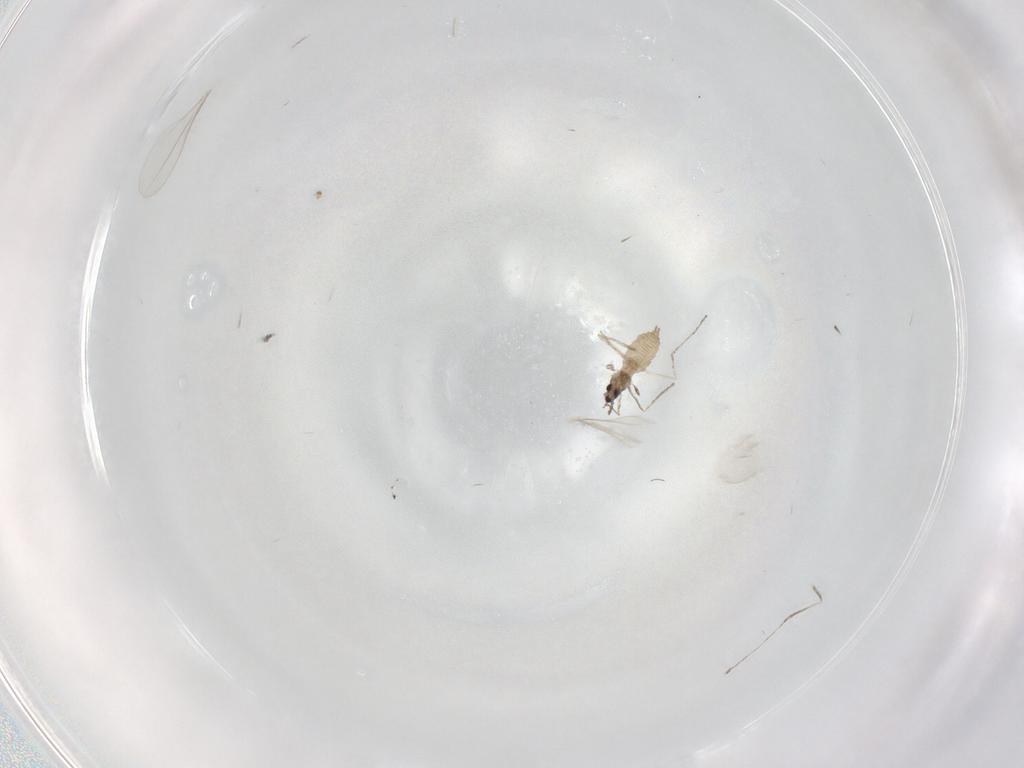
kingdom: Animalia
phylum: Arthropoda
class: Insecta
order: Diptera
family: Cecidomyiidae
